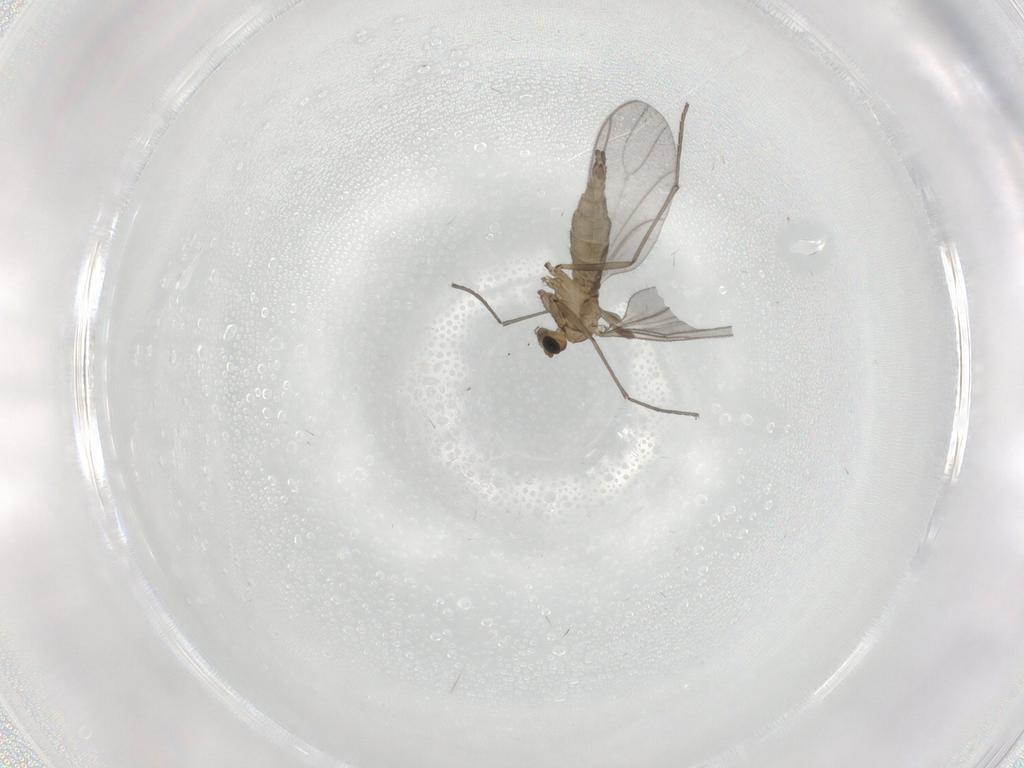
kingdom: Animalia
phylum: Arthropoda
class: Insecta
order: Diptera
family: Sciaridae
